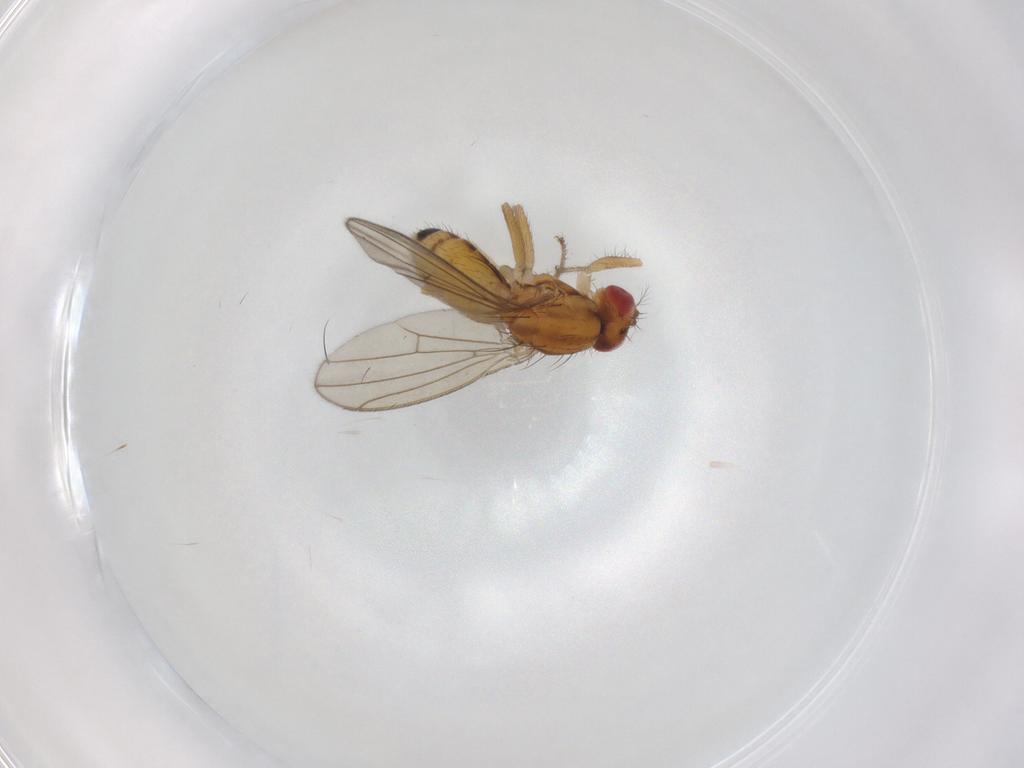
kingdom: Animalia
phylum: Arthropoda
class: Insecta
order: Diptera
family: Drosophilidae
